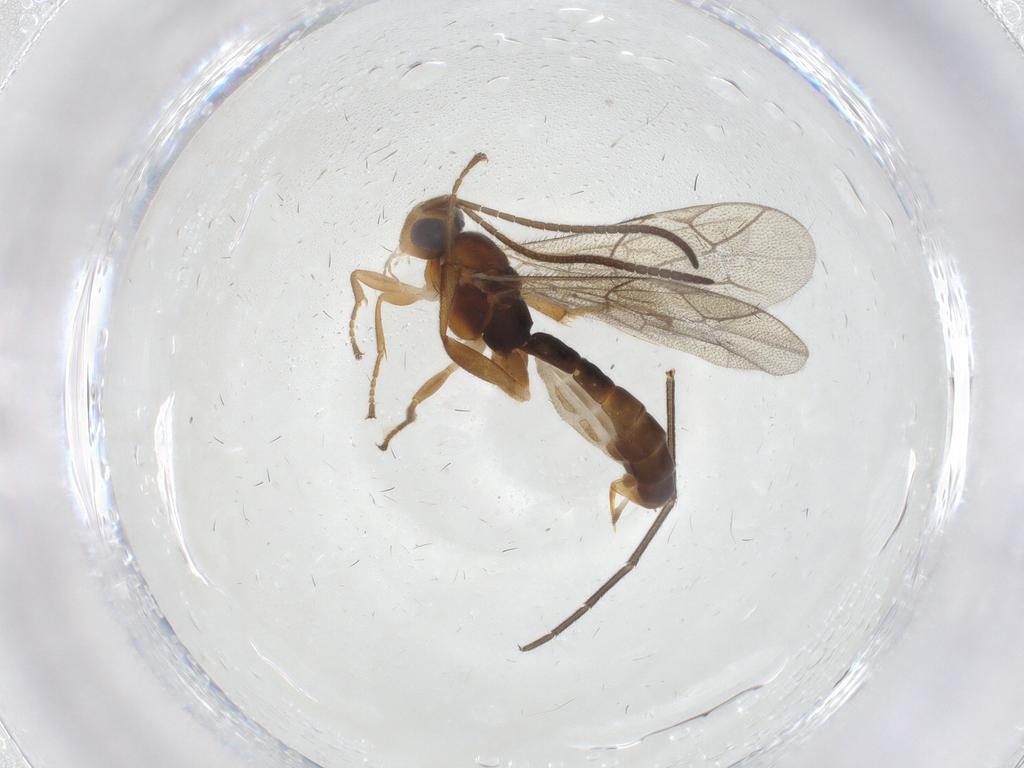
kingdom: Animalia
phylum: Arthropoda
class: Insecta
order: Hymenoptera
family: Ichneumonidae
